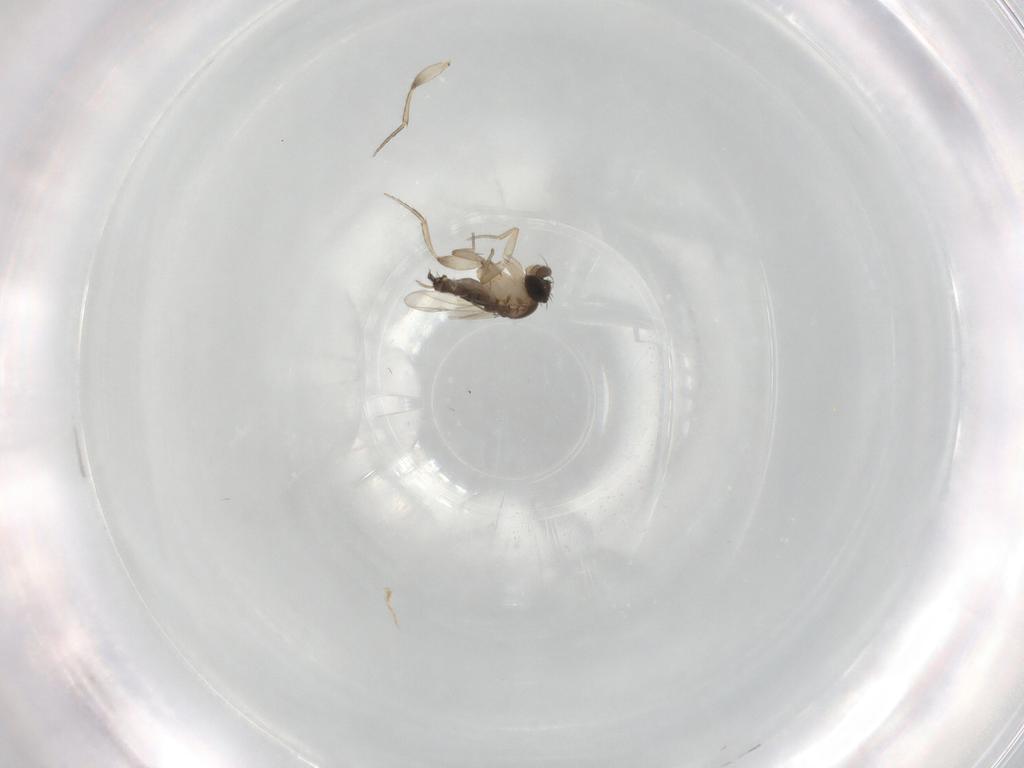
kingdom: Animalia
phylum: Arthropoda
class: Insecta
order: Diptera
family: Phoridae
